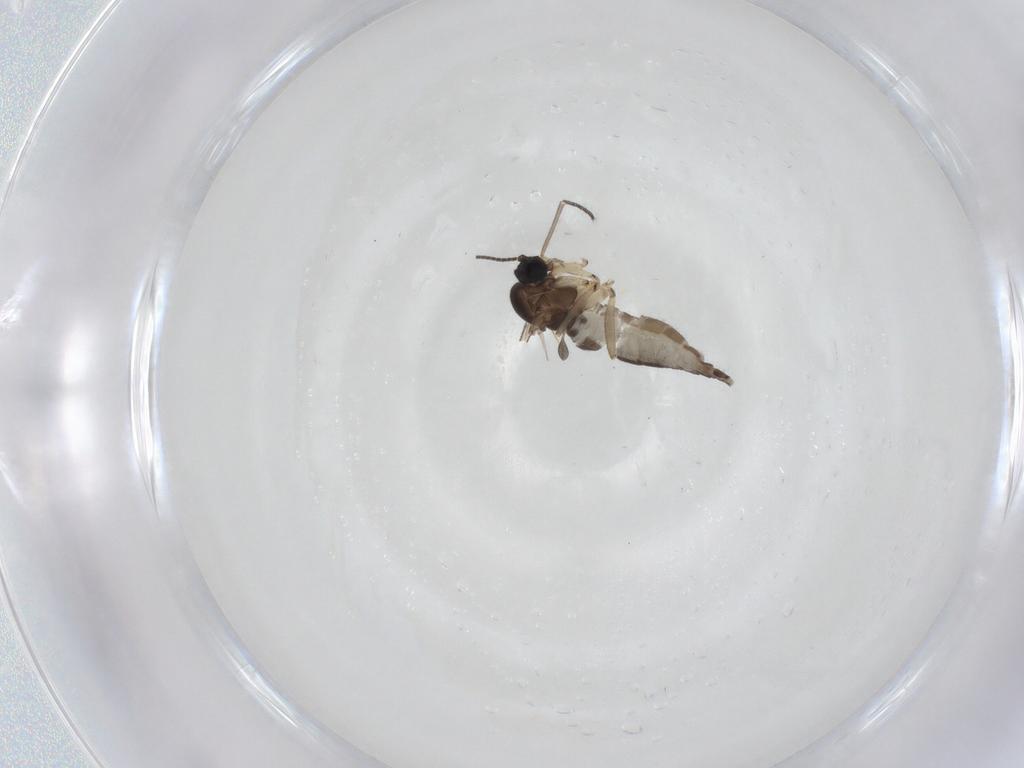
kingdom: Animalia
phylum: Arthropoda
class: Insecta
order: Diptera
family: Sciaridae
